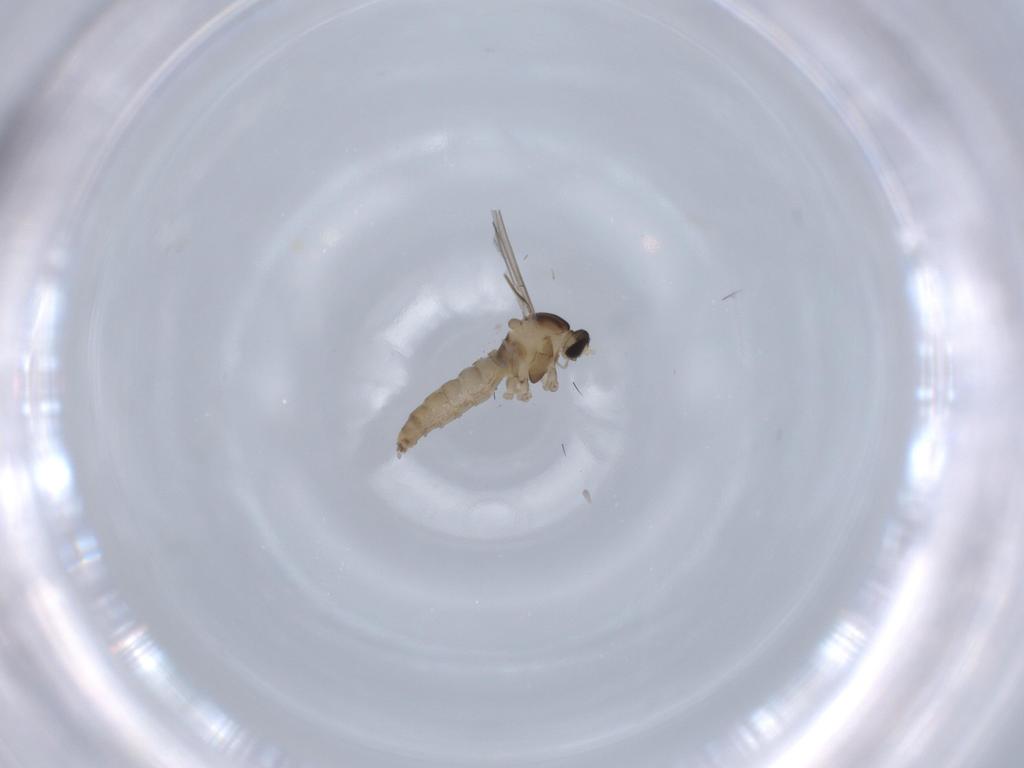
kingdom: Animalia
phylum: Arthropoda
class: Insecta
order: Diptera
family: Cecidomyiidae
